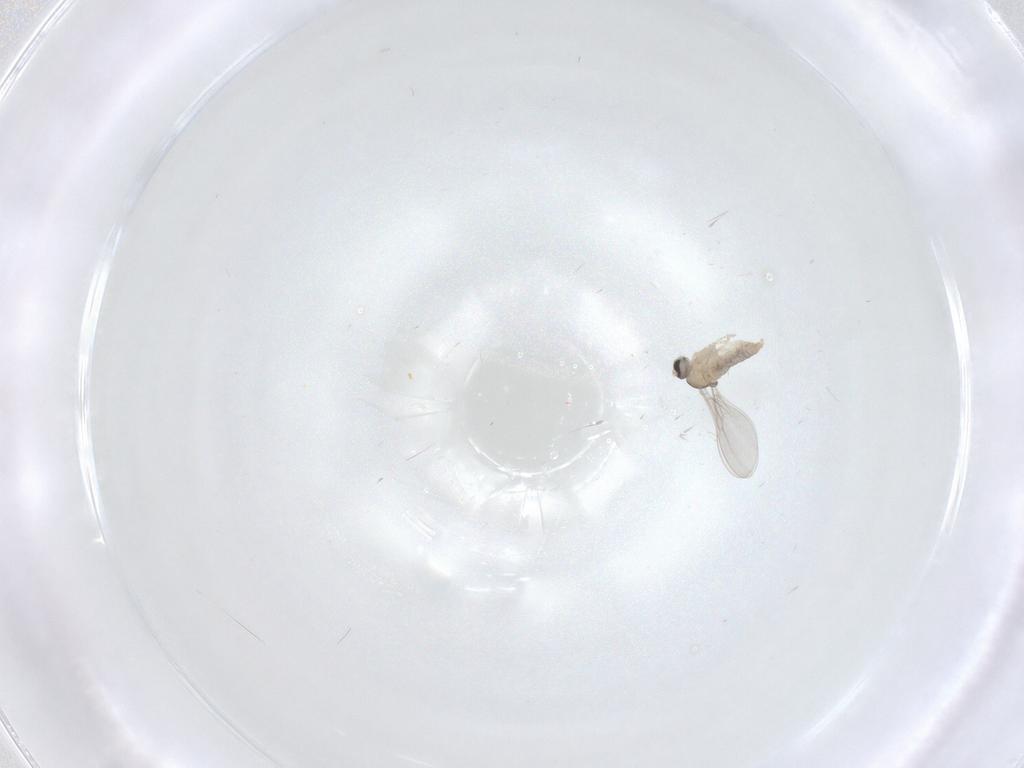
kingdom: Animalia
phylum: Arthropoda
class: Insecta
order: Diptera
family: Cecidomyiidae
